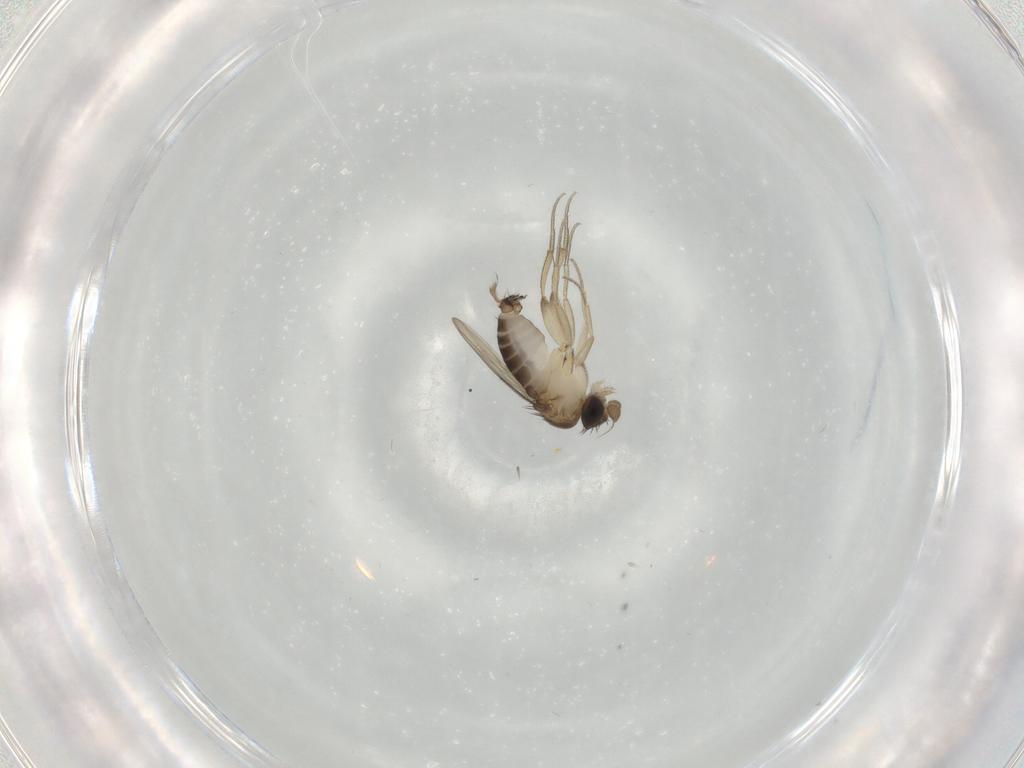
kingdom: Animalia
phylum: Arthropoda
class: Insecta
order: Diptera
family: Phoridae
